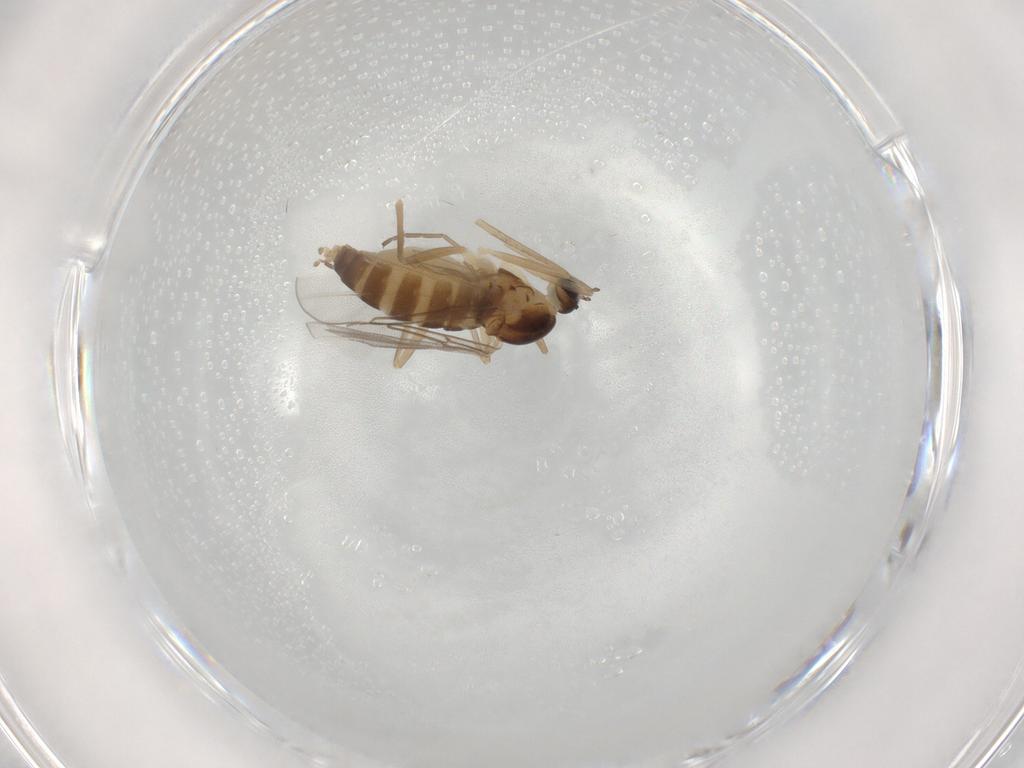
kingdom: Animalia
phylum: Arthropoda
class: Insecta
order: Diptera
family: Cecidomyiidae
